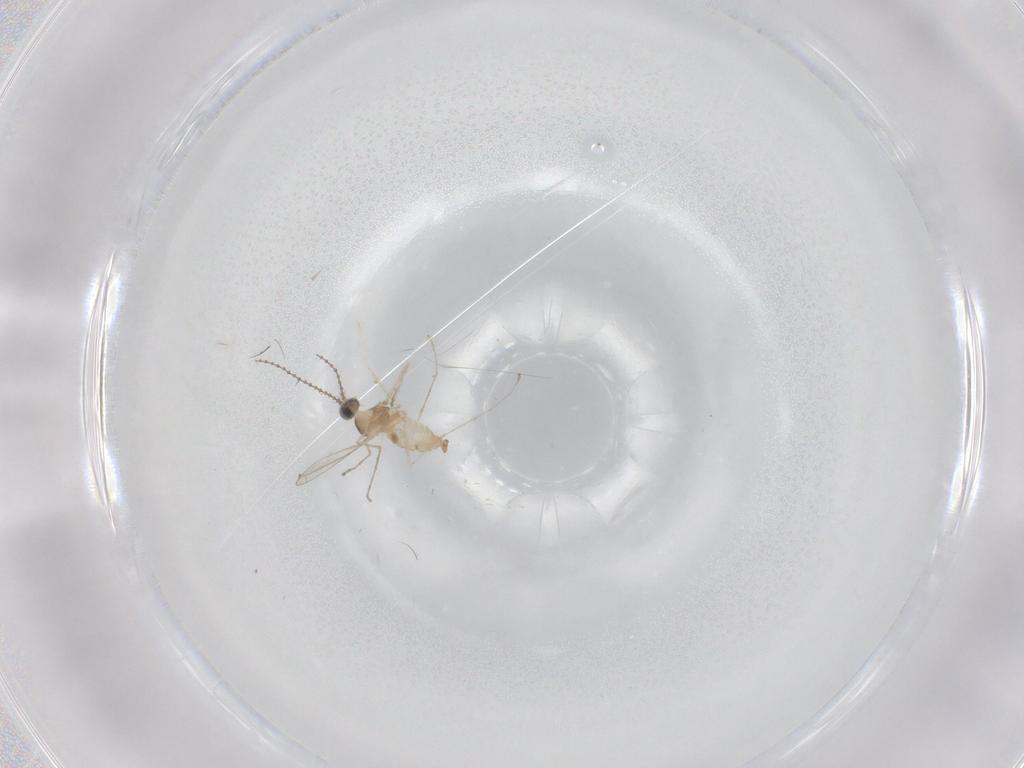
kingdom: Animalia
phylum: Arthropoda
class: Insecta
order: Diptera
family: Cecidomyiidae
